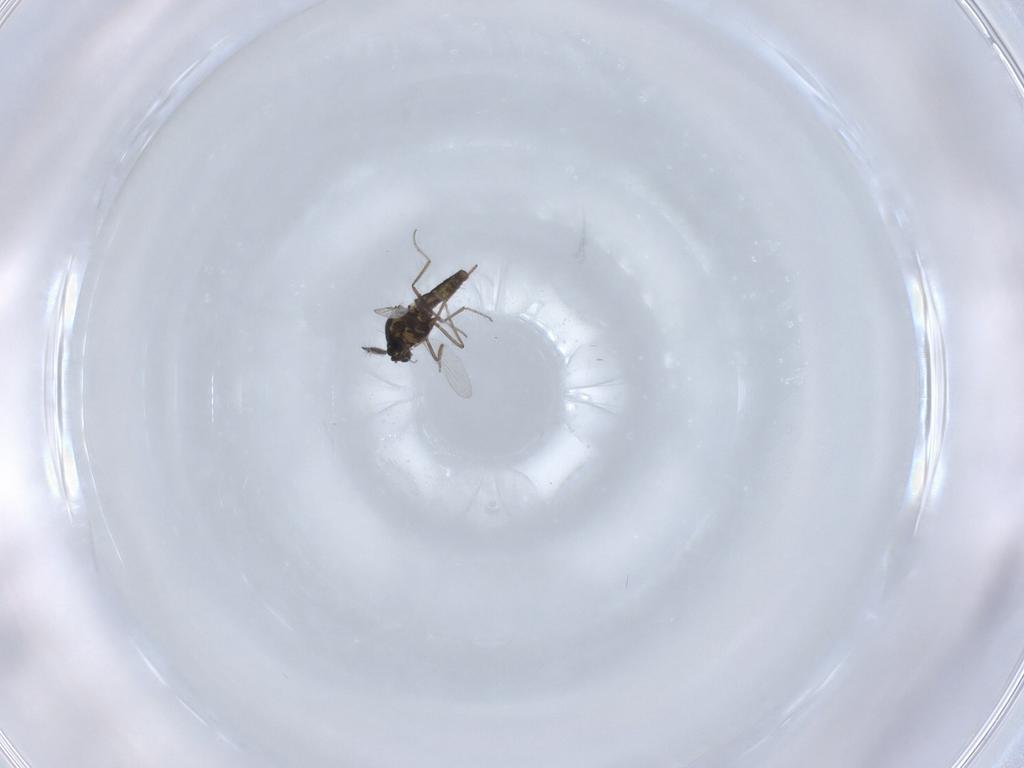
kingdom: Animalia
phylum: Arthropoda
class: Insecta
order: Diptera
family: Ceratopogonidae
